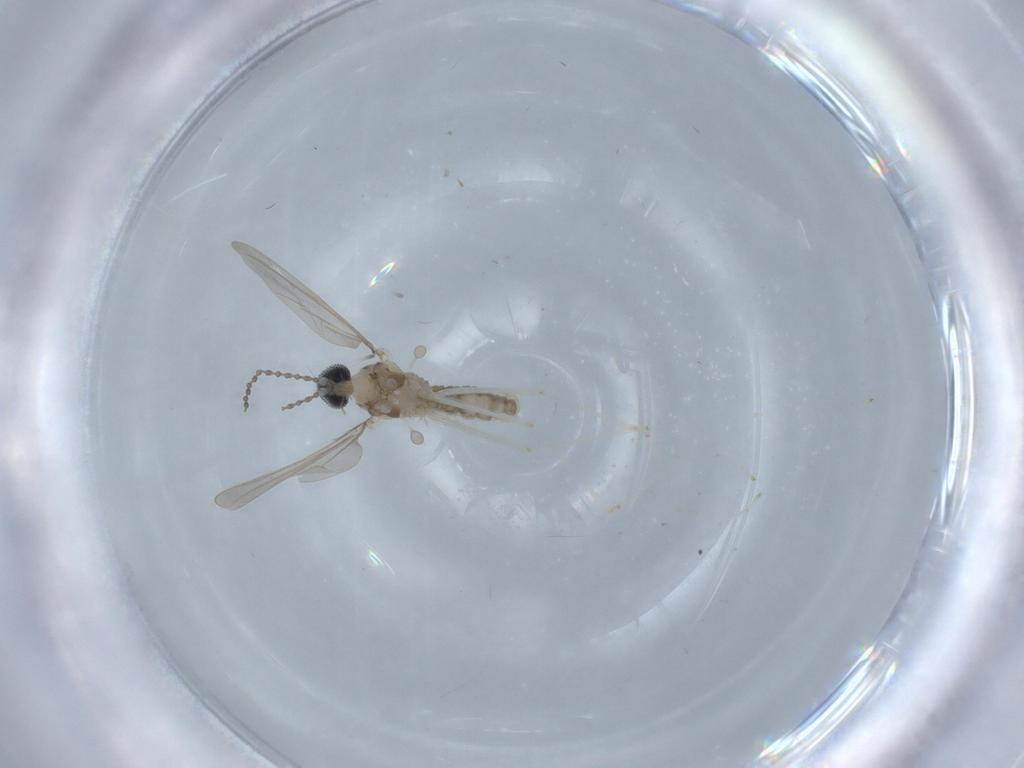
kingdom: Animalia
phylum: Arthropoda
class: Insecta
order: Diptera
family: Cecidomyiidae
